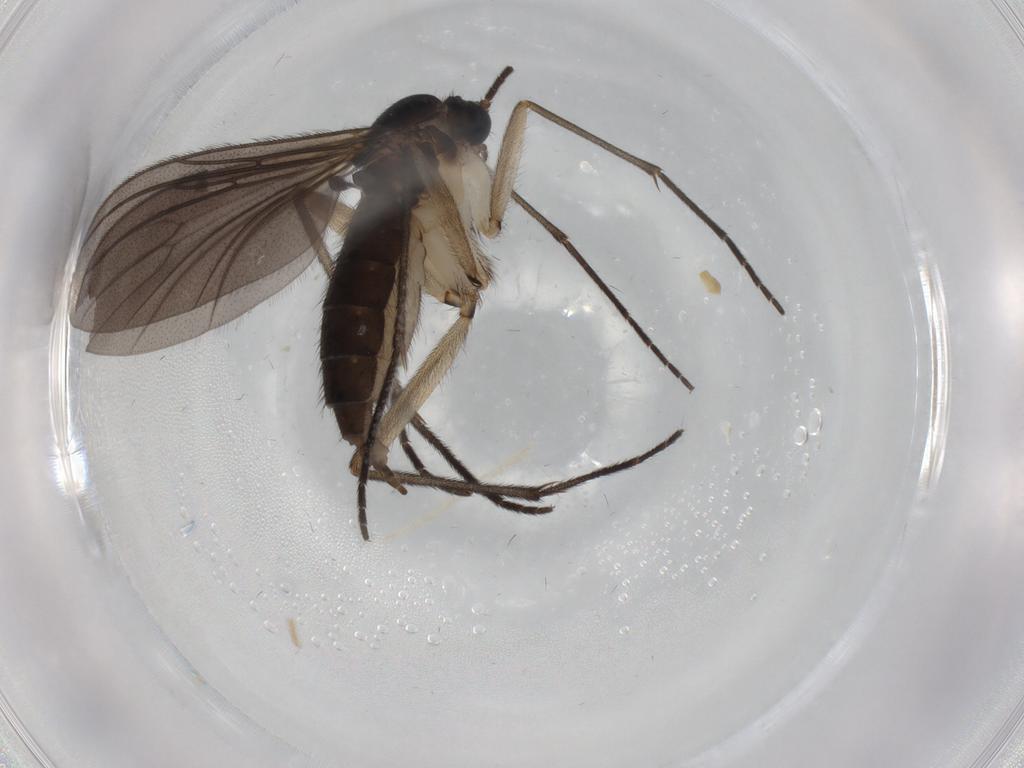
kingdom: Animalia
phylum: Arthropoda
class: Insecta
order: Diptera
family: Sciaridae
